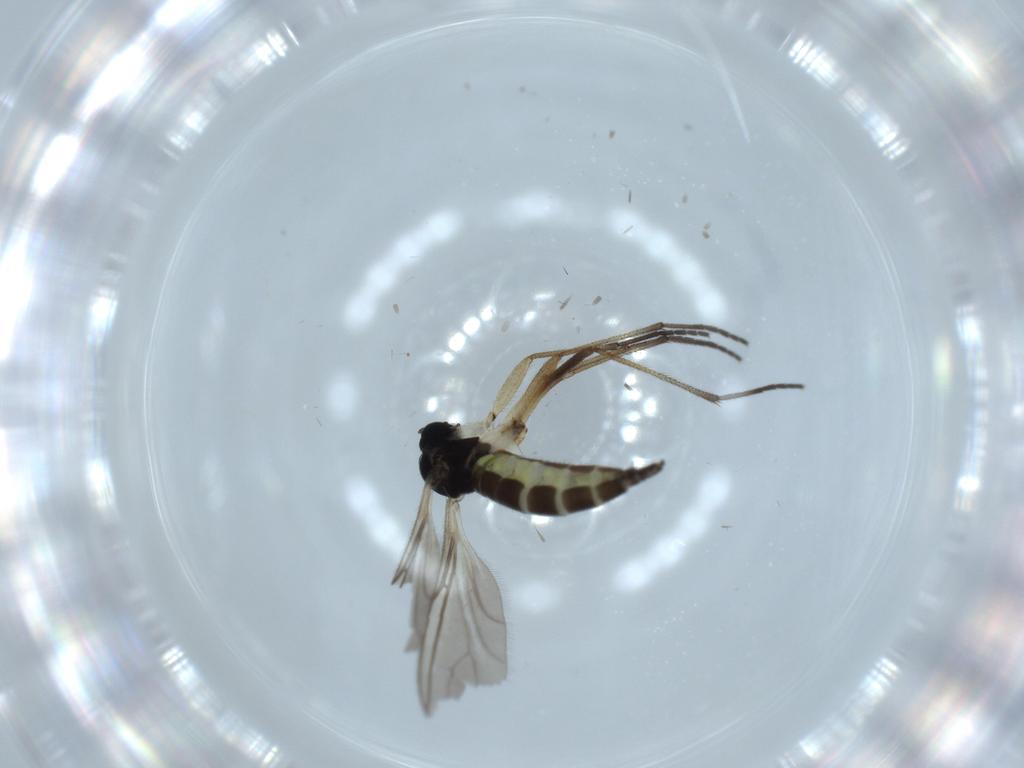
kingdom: Animalia
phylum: Arthropoda
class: Insecta
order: Diptera
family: Sciaridae
